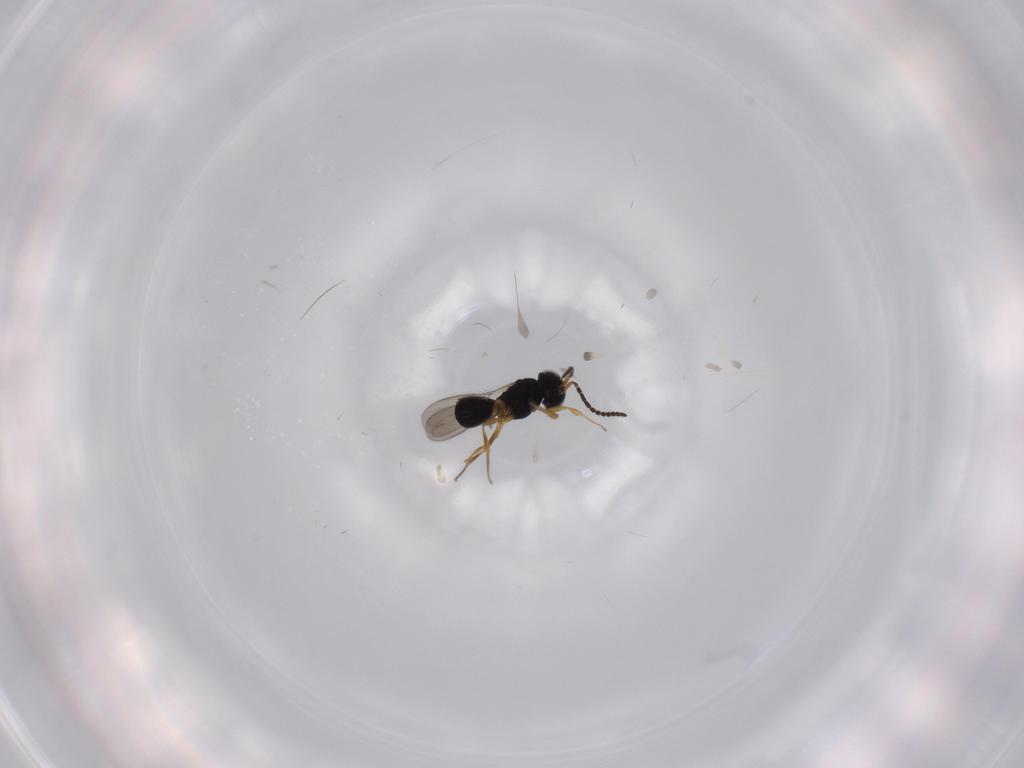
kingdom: Animalia
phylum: Arthropoda
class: Insecta
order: Hymenoptera
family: Scelionidae
